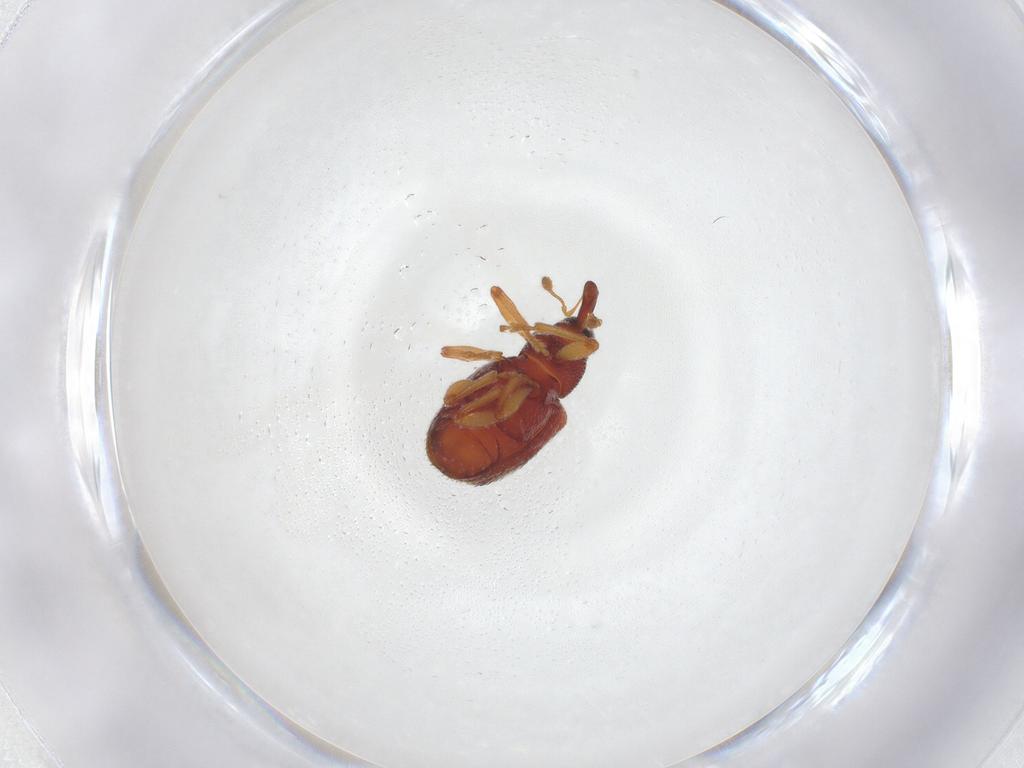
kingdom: Animalia
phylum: Arthropoda
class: Insecta
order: Coleoptera
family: Curculionidae
